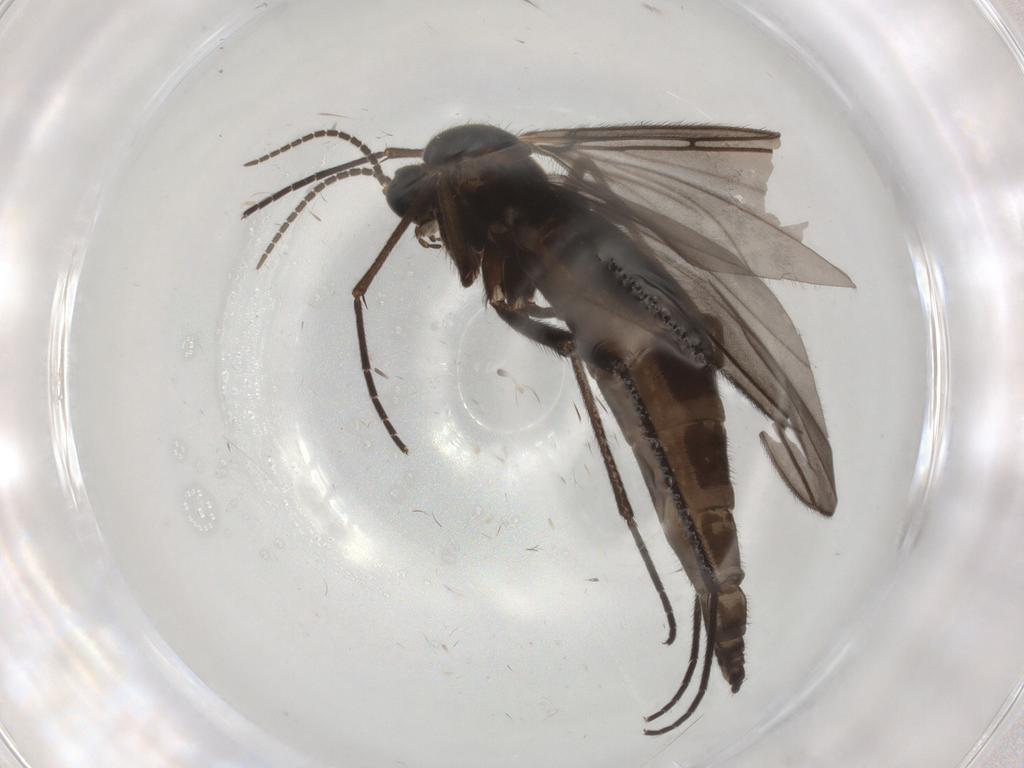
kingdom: Animalia
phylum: Arthropoda
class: Insecta
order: Diptera
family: Sciaridae
